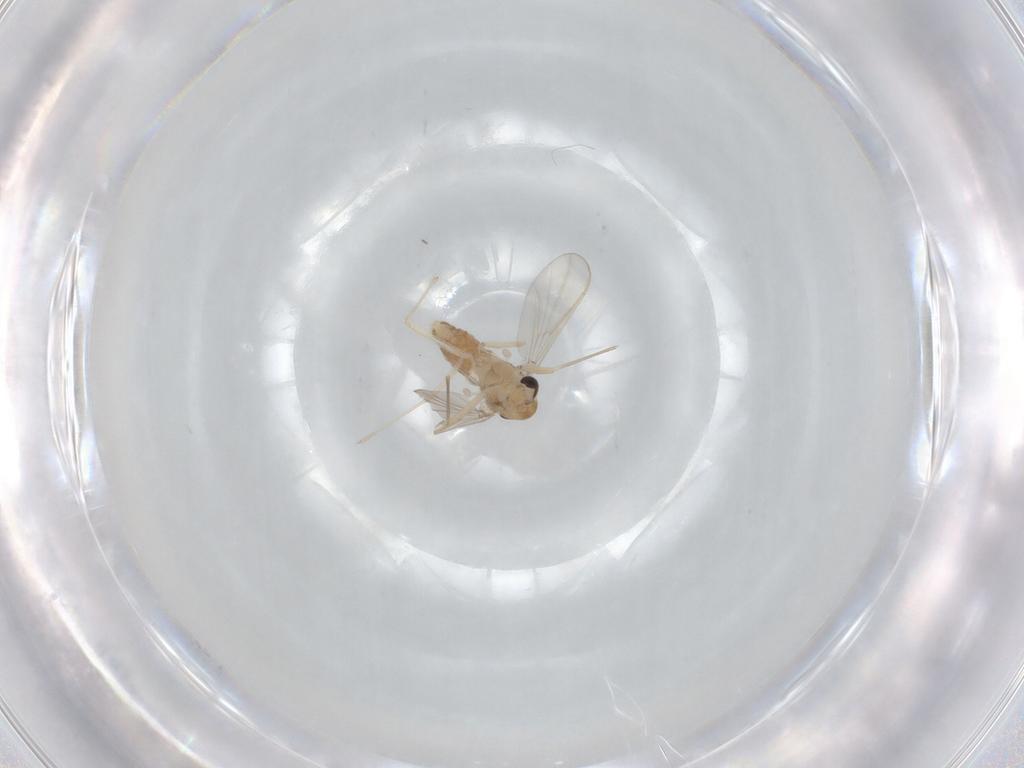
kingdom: Animalia
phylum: Arthropoda
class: Insecta
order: Diptera
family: Chironomidae
